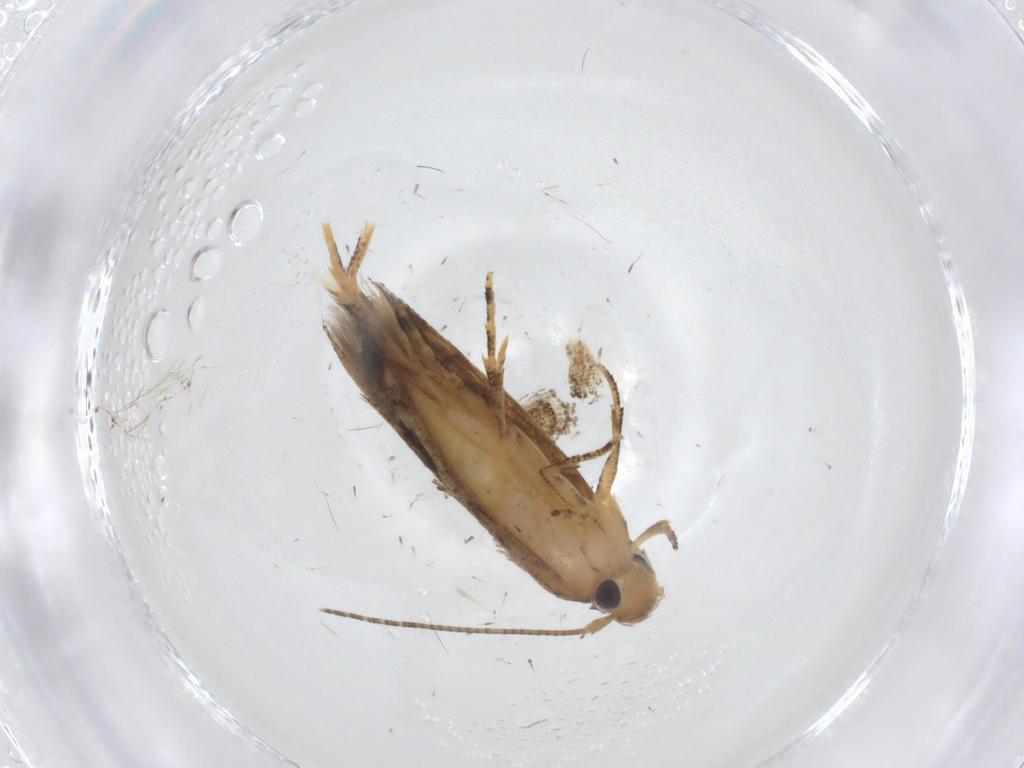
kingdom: Animalia
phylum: Arthropoda
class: Insecta
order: Lepidoptera
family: Momphidae
